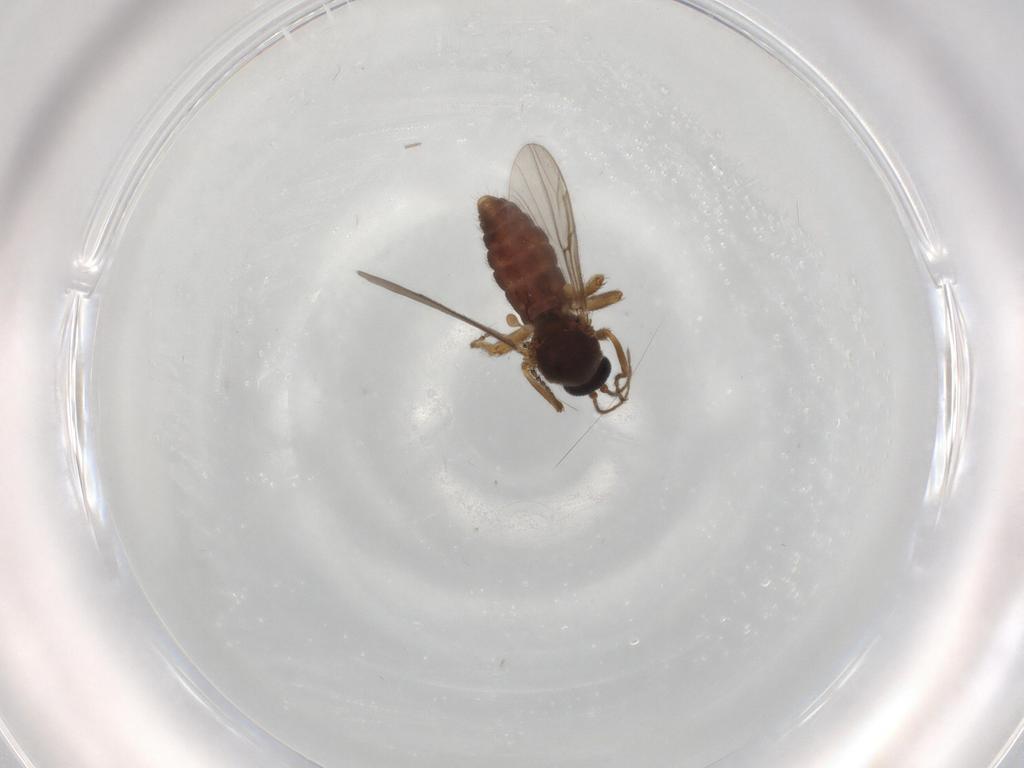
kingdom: Animalia
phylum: Arthropoda
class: Insecta
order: Diptera
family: Ceratopogonidae
